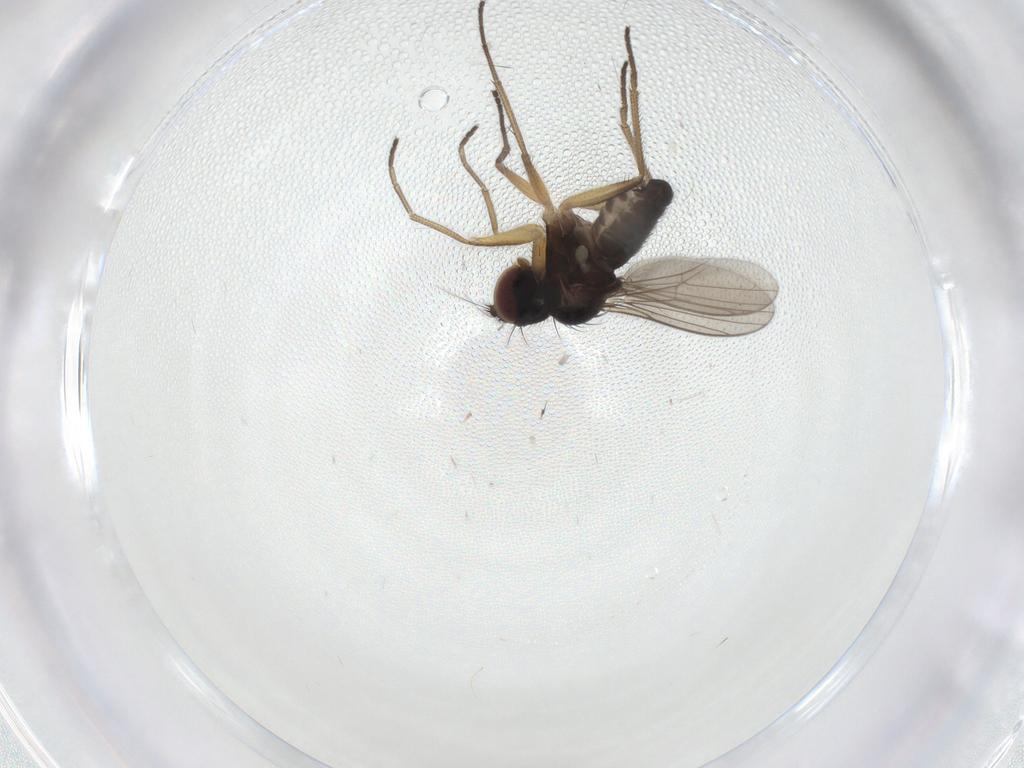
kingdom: Animalia
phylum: Arthropoda
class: Insecta
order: Diptera
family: Dolichopodidae
